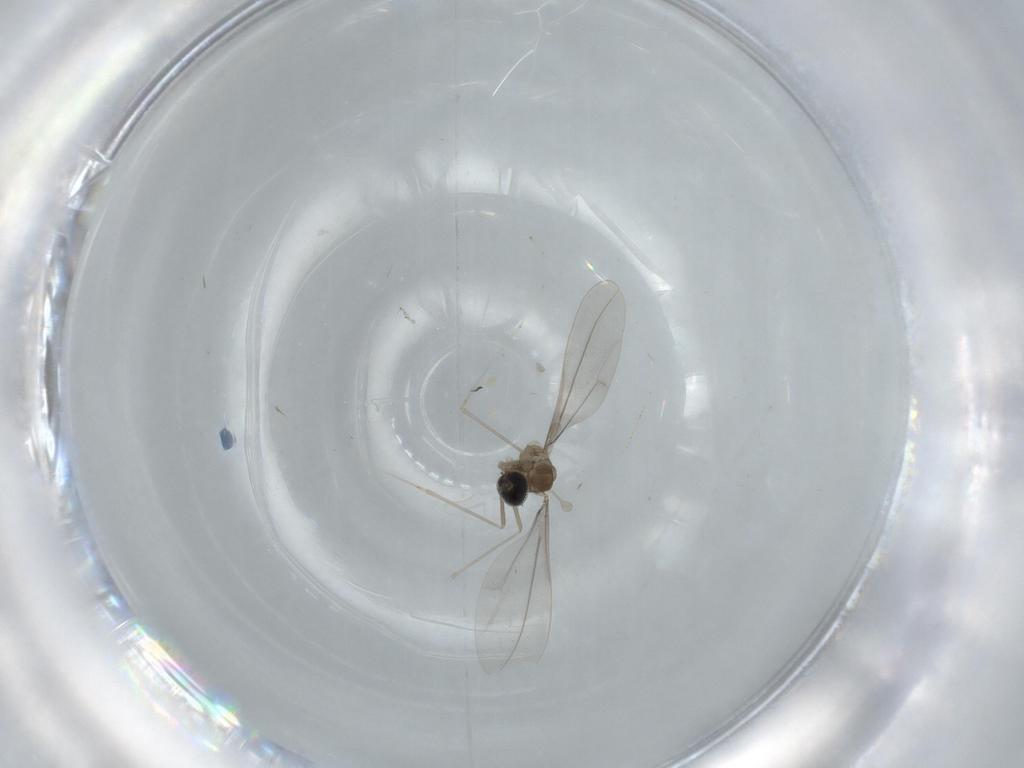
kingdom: Animalia
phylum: Arthropoda
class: Insecta
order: Diptera
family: Cecidomyiidae
